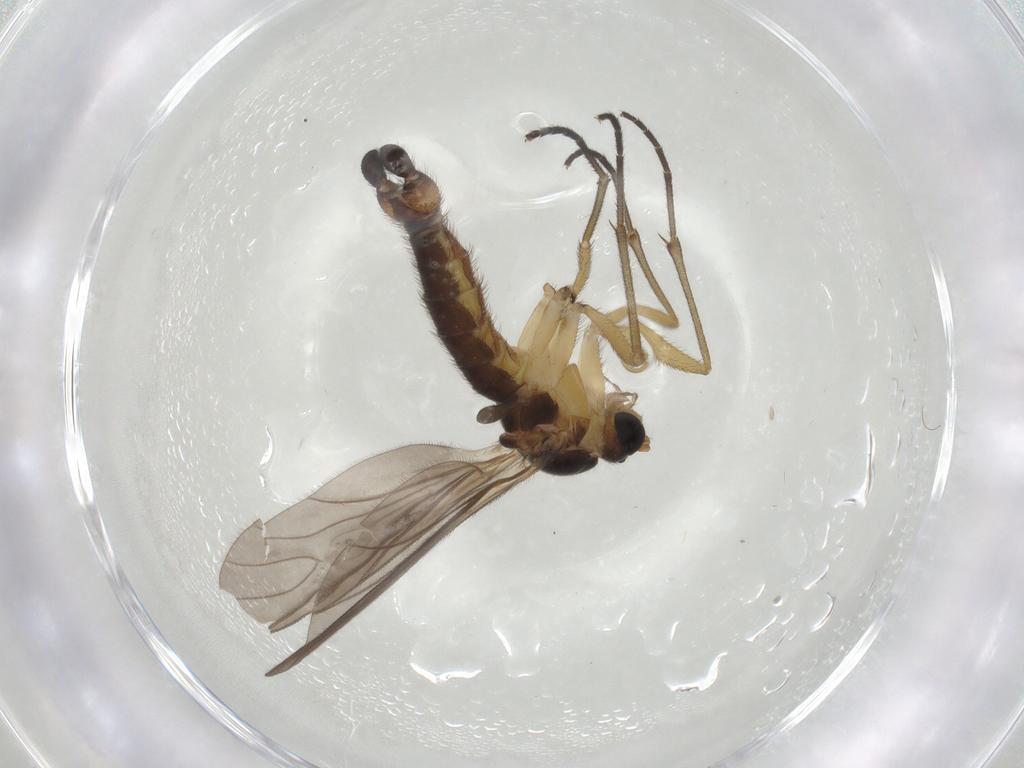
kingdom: Animalia
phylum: Arthropoda
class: Insecta
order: Diptera
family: Sciaridae
